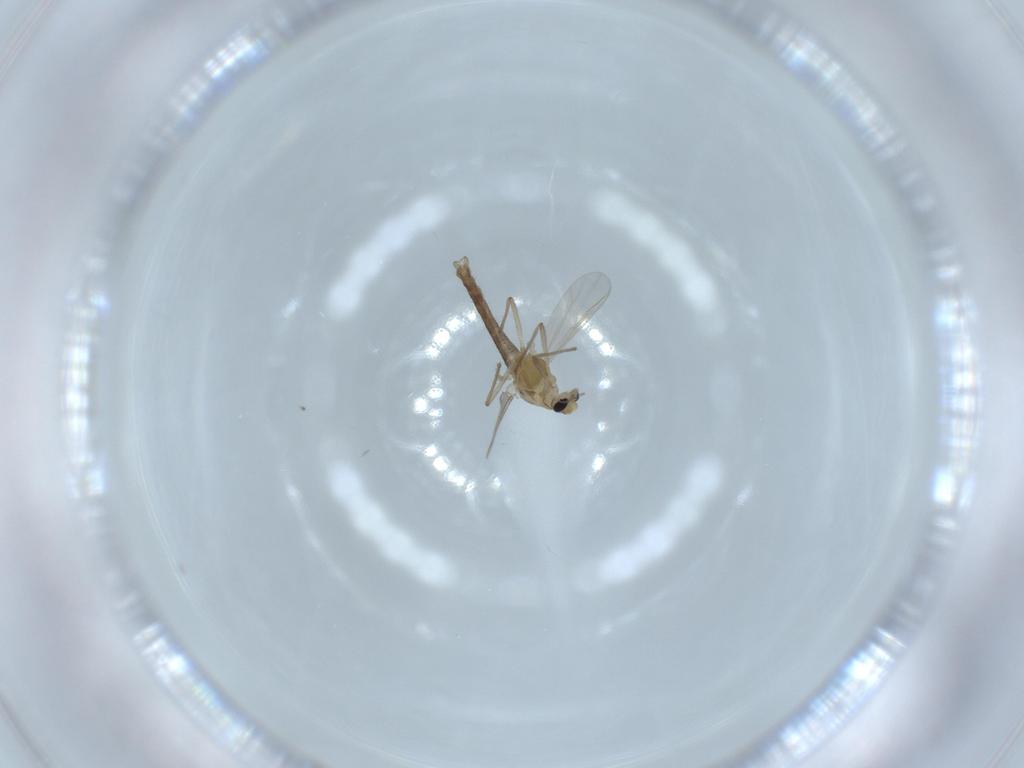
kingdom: Animalia
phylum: Arthropoda
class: Insecta
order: Diptera
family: Chironomidae
